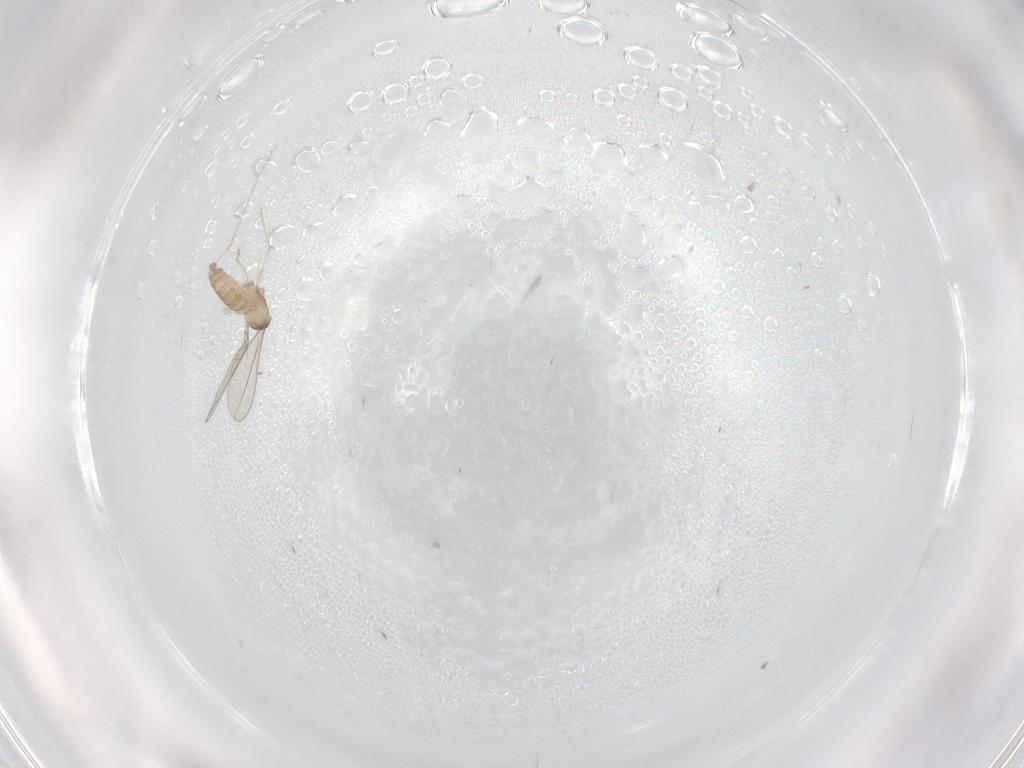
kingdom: Animalia
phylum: Arthropoda
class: Insecta
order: Diptera
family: Cecidomyiidae
